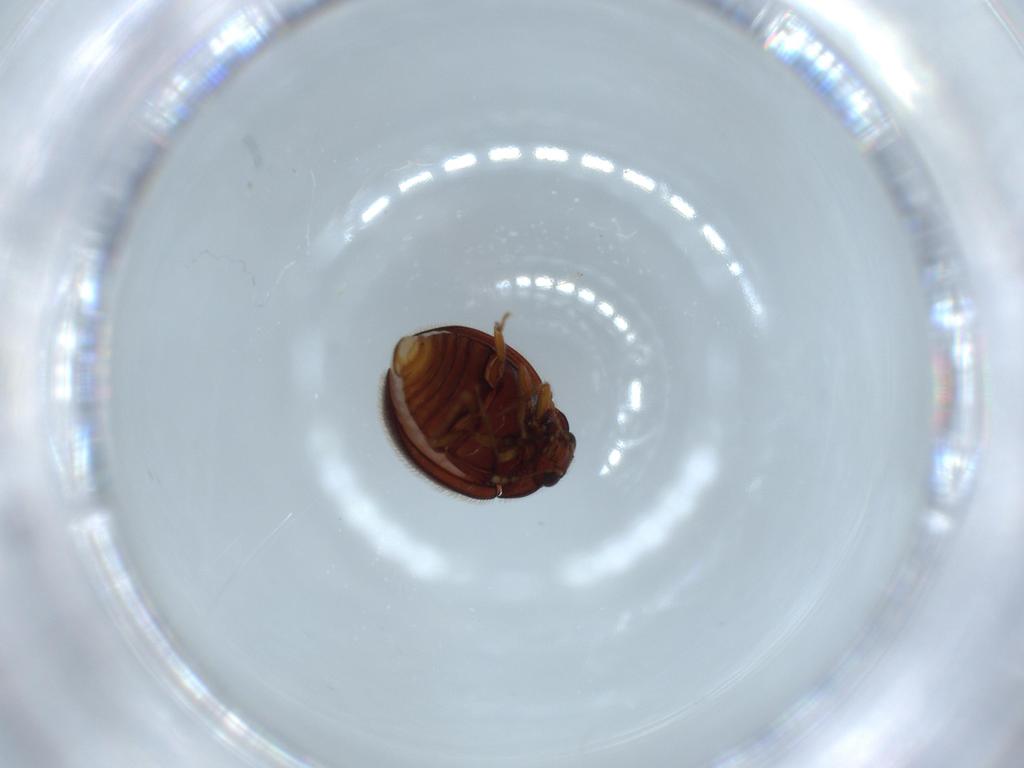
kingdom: Animalia
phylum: Arthropoda
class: Insecta
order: Coleoptera
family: Anamorphidae
